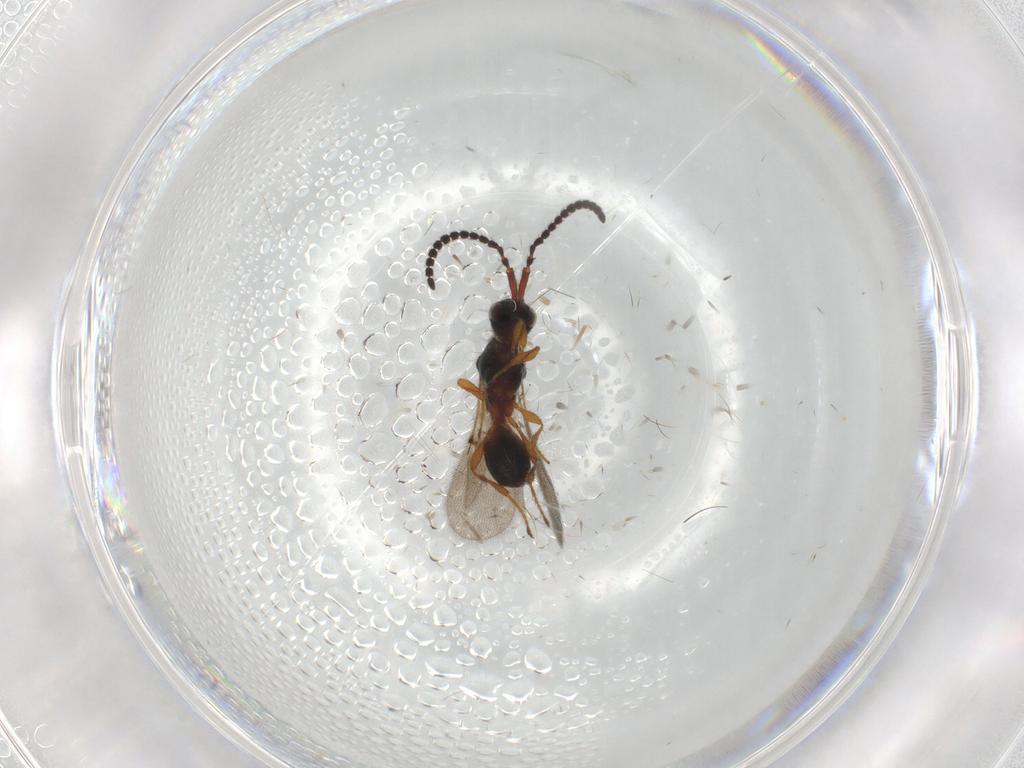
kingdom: Animalia
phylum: Arthropoda
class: Insecta
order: Hymenoptera
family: Diapriidae
